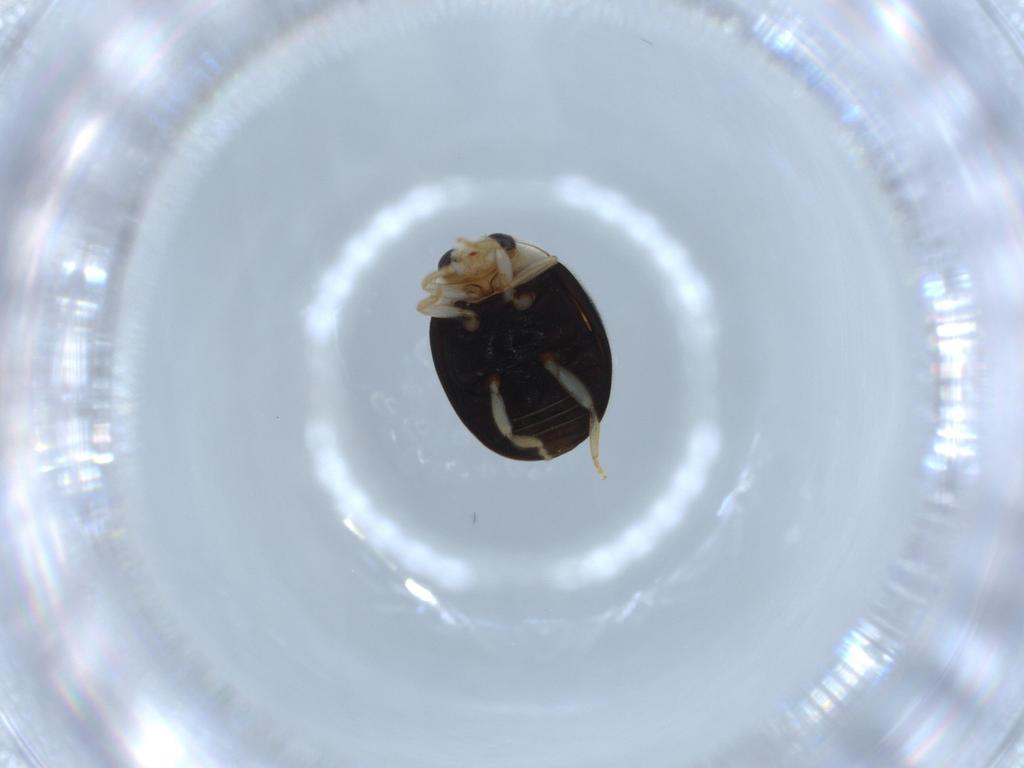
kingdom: Animalia
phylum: Arthropoda
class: Insecta
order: Coleoptera
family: Coccinellidae
